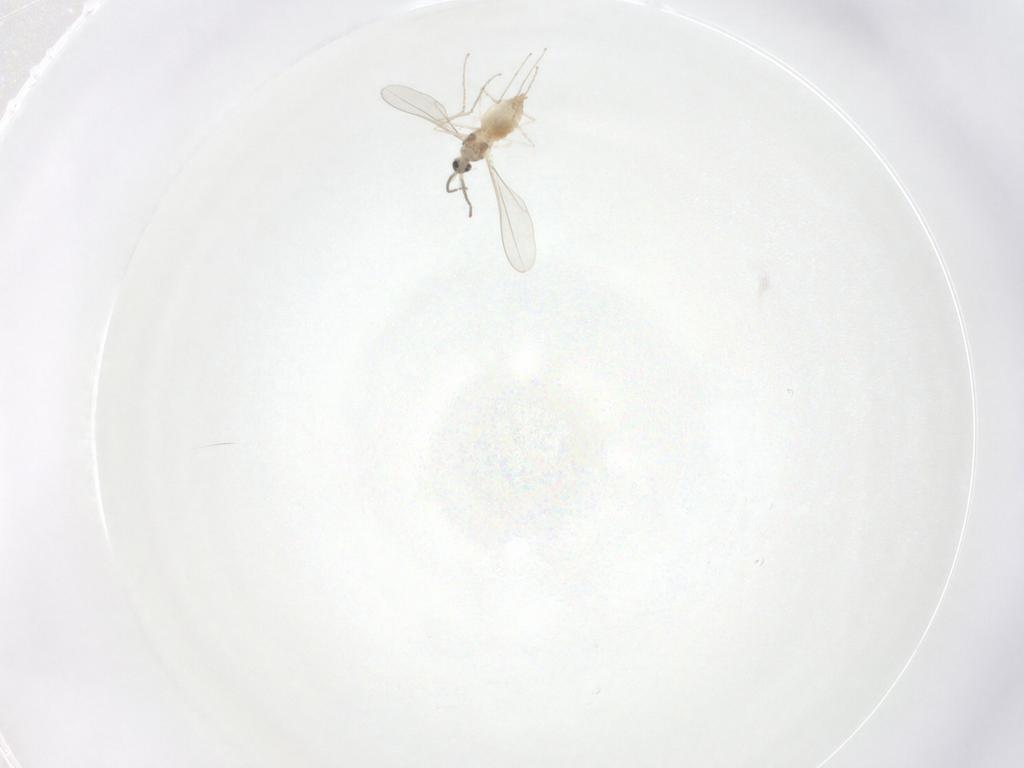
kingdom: Animalia
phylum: Arthropoda
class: Insecta
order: Diptera
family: Cecidomyiidae
